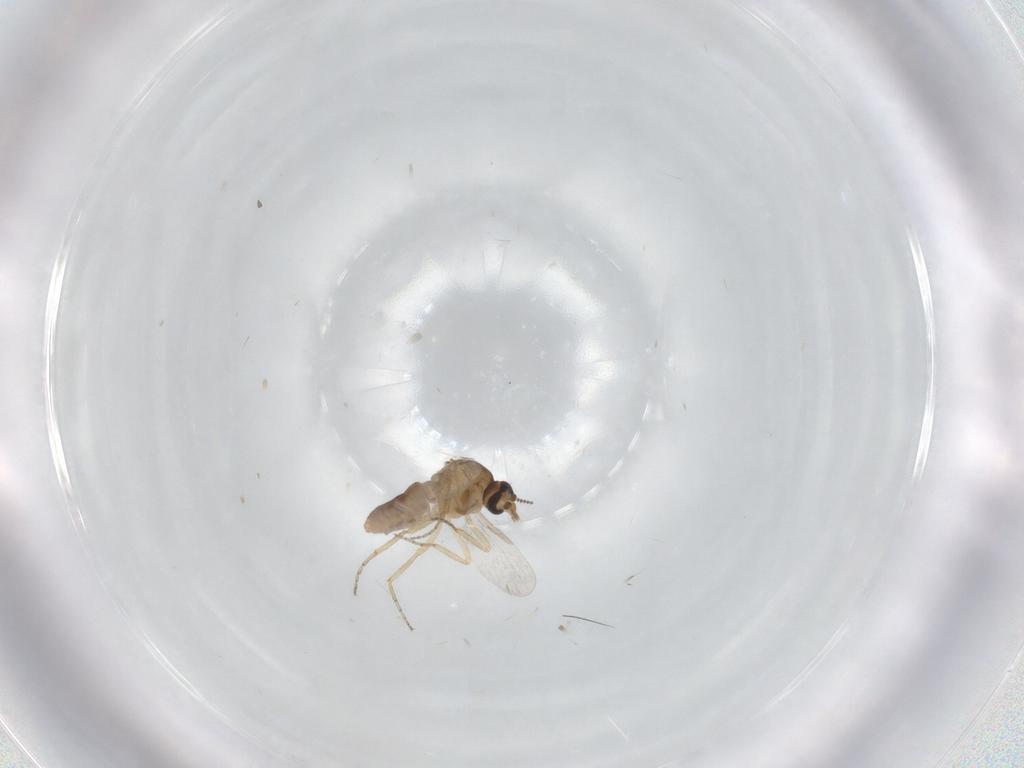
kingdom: Animalia
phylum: Arthropoda
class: Insecta
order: Diptera
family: Ceratopogonidae
